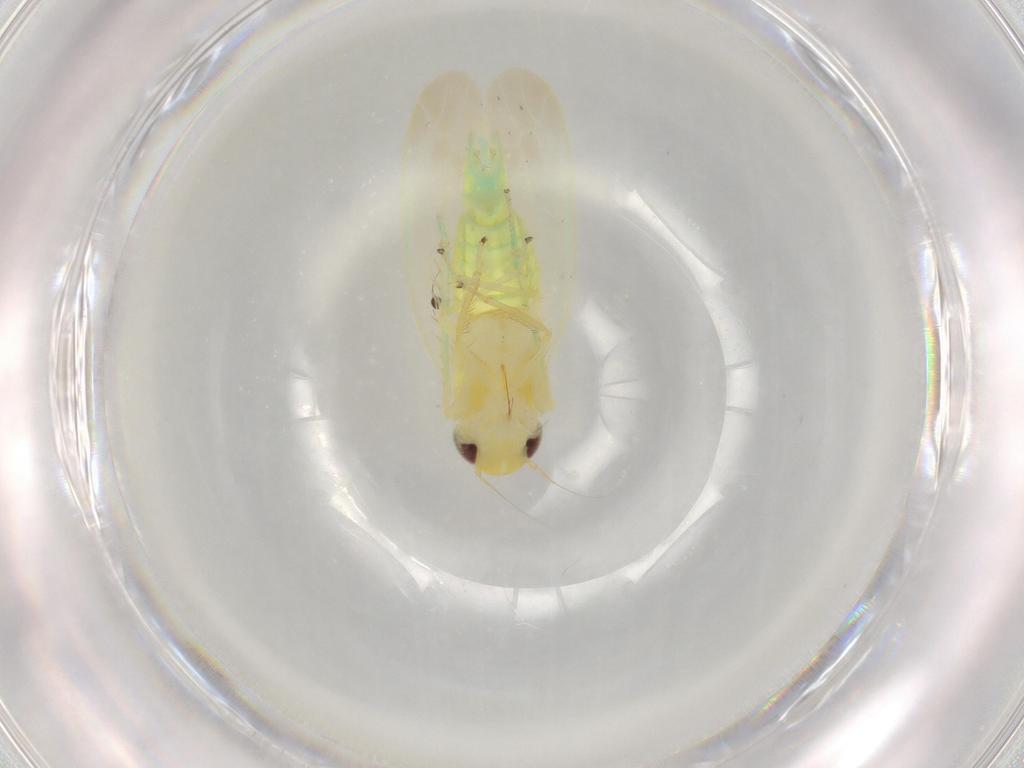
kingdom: Animalia
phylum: Arthropoda
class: Insecta
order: Hemiptera
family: Cicadellidae
